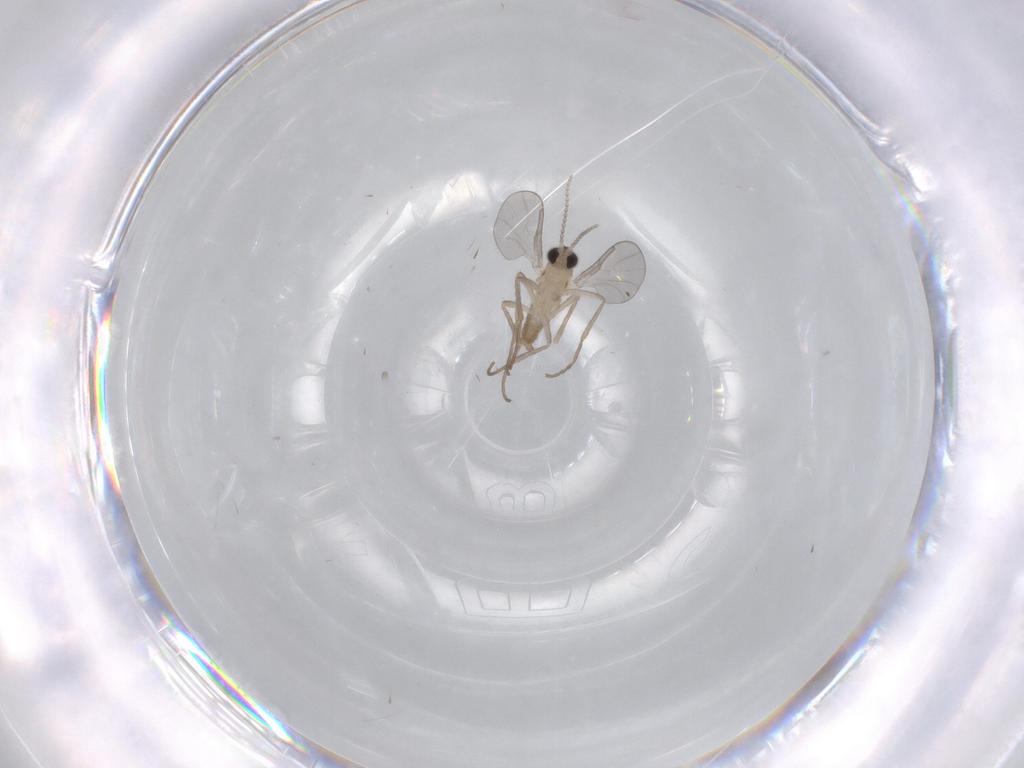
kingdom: Animalia
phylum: Arthropoda
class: Insecta
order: Diptera
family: Cecidomyiidae
